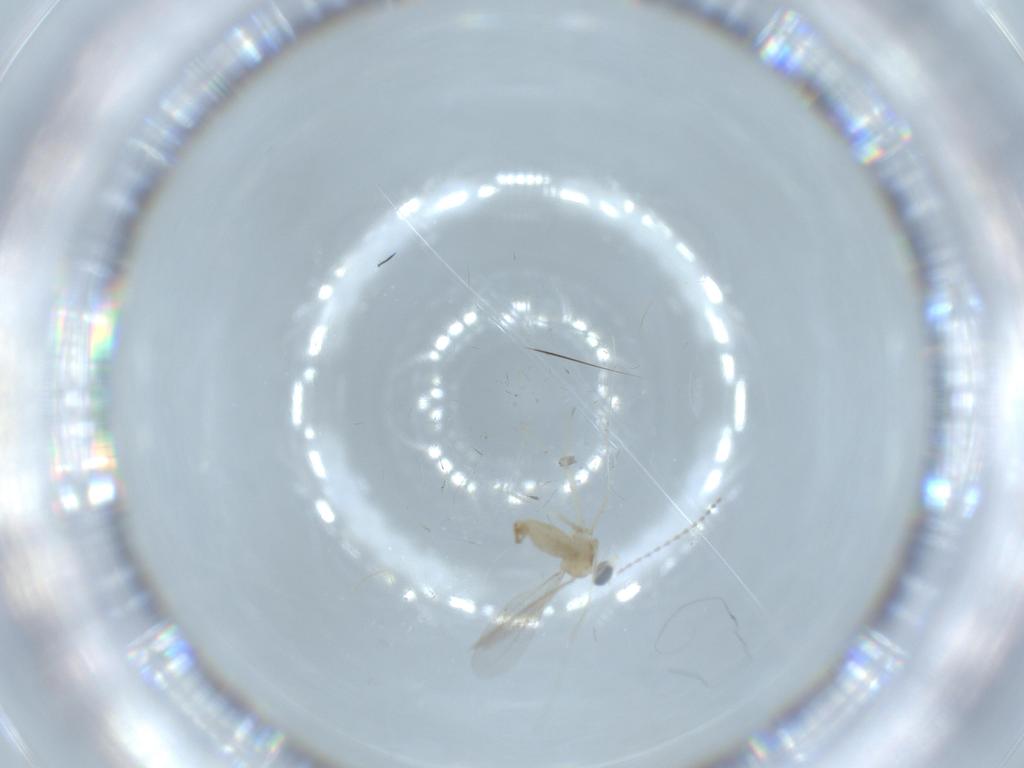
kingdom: Animalia
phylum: Arthropoda
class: Insecta
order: Diptera
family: Cecidomyiidae
